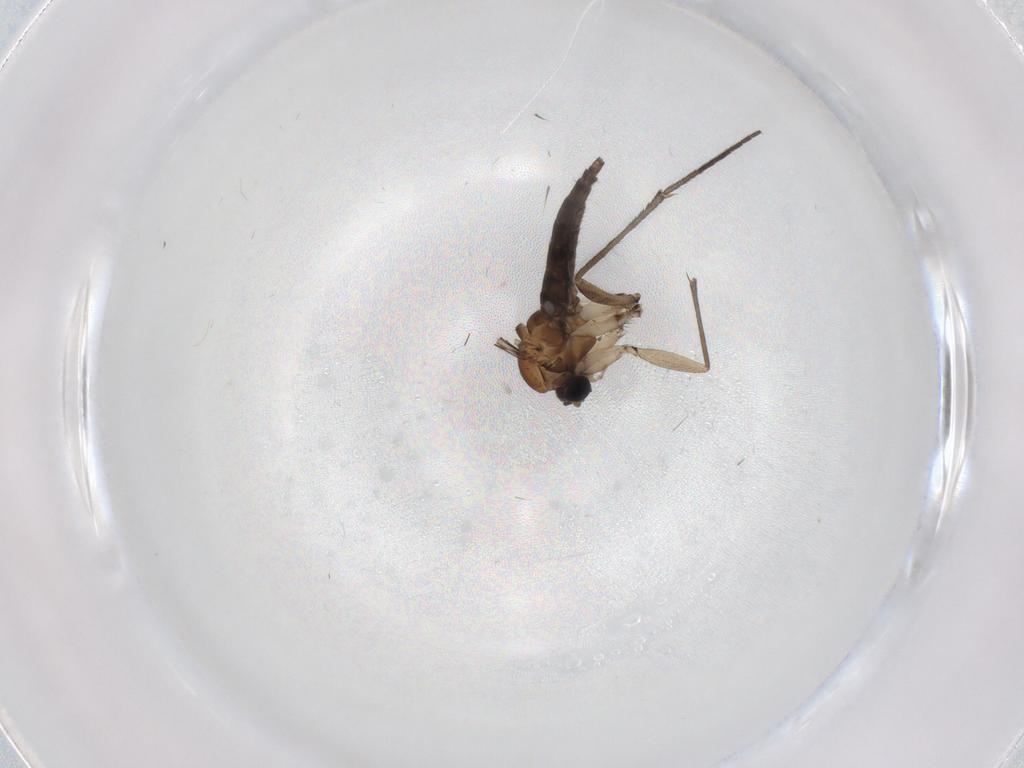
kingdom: Animalia
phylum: Arthropoda
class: Insecta
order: Diptera
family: Sciaridae
